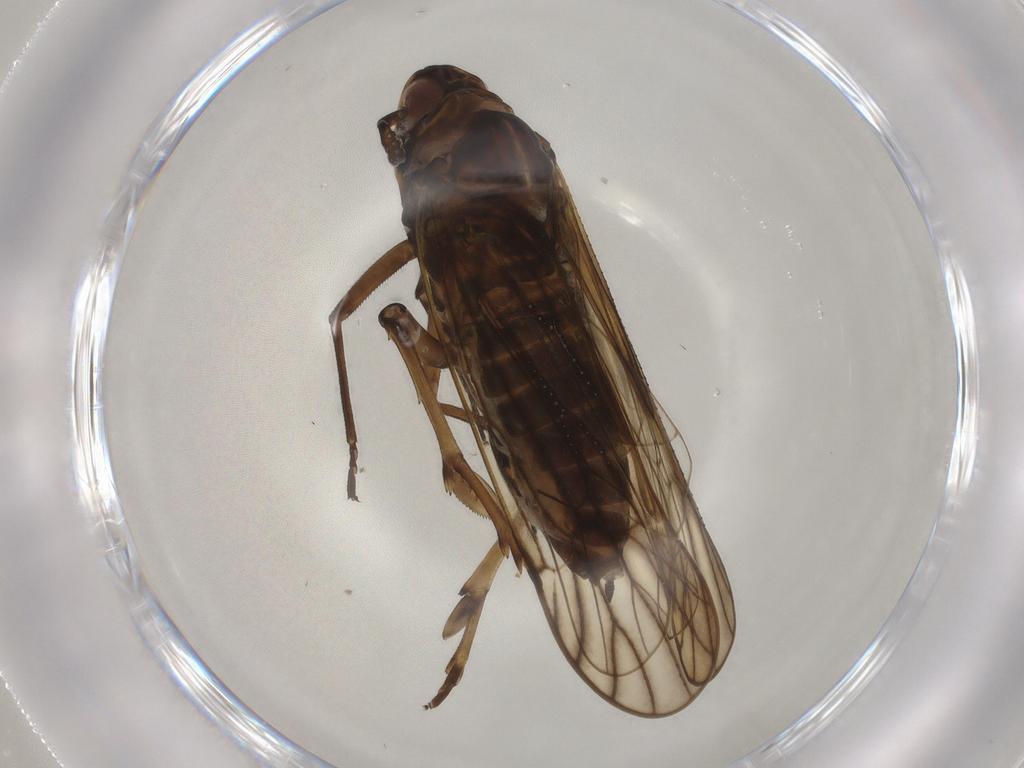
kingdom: Animalia
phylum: Arthropoda
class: Insecta
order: Hemiptera
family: Delphacidae
